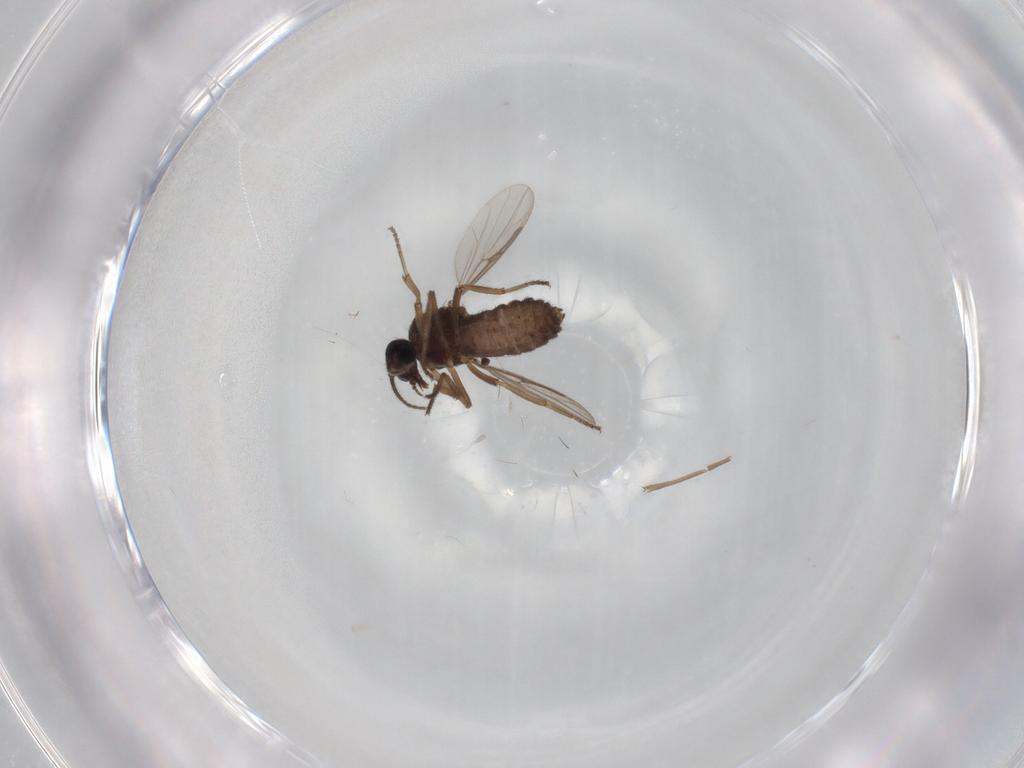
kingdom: Animalia
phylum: Arthropoda
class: Insecta
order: Diptera
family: Ceratopogonidae
